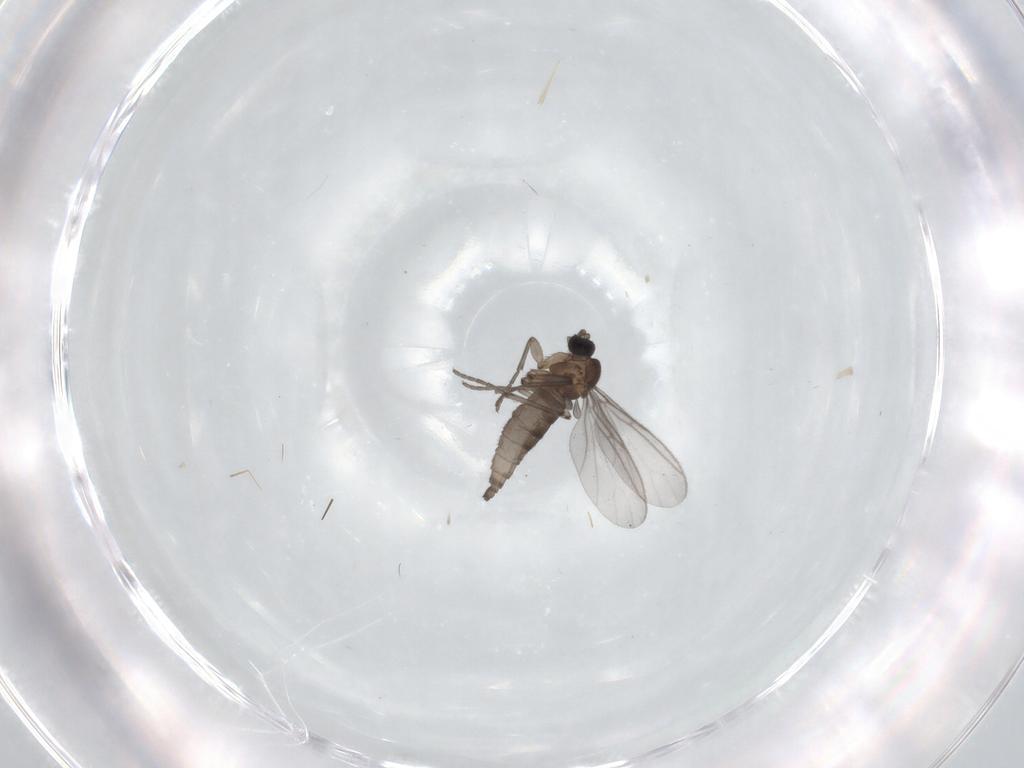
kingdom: Animalia
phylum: Arthropoda
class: Insecta
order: Diptera
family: Sciaridae
